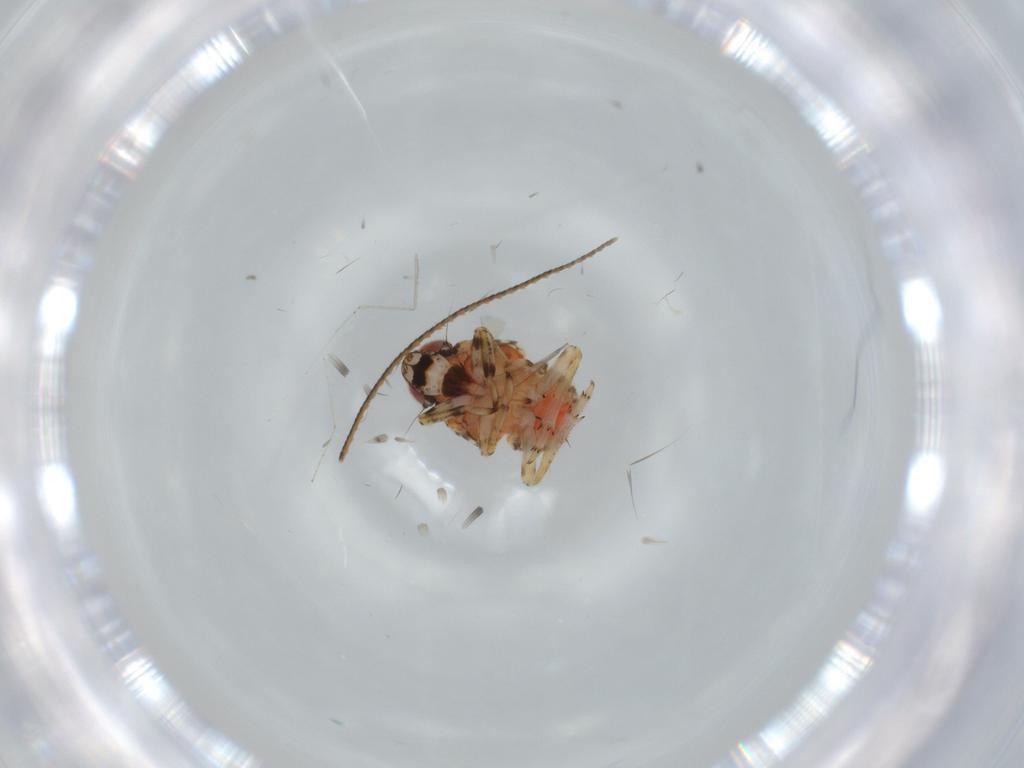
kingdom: Animalia
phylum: Arthropoda
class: Insecta
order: Hemiptera
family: Issidae
